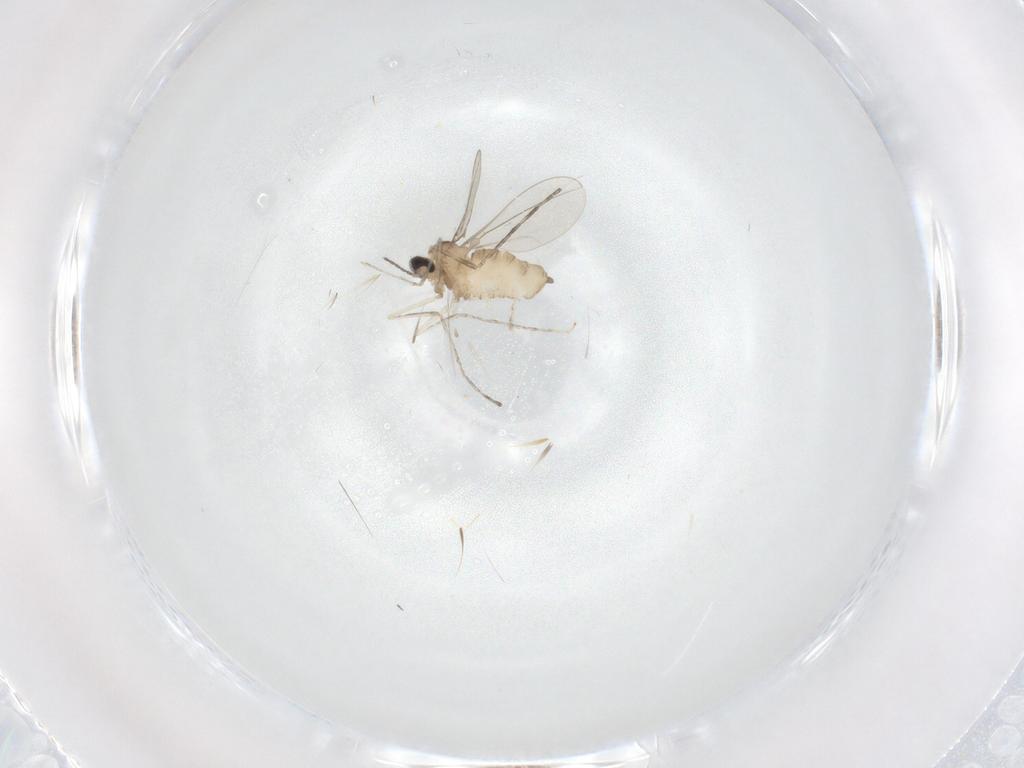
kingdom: Animalia
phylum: Arthropoda
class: Insecta
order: Diptera
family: Cecidomyiidae
